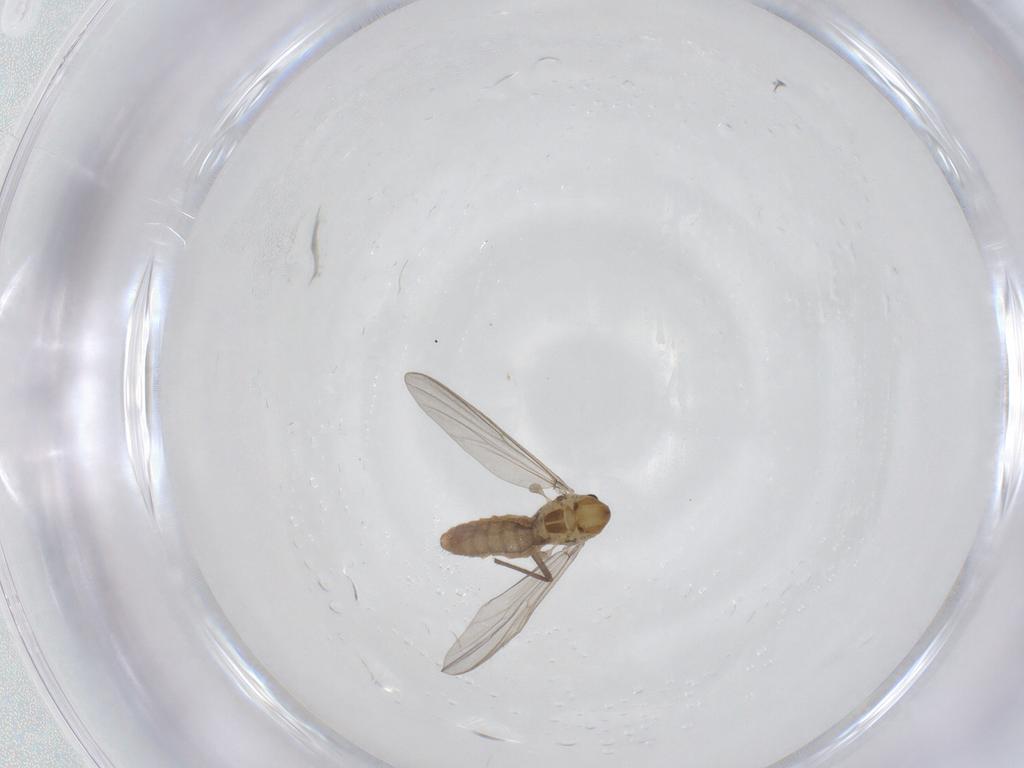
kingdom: Animalia
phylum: Arthropoda
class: Insecta
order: Diptera
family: Chironomidae
